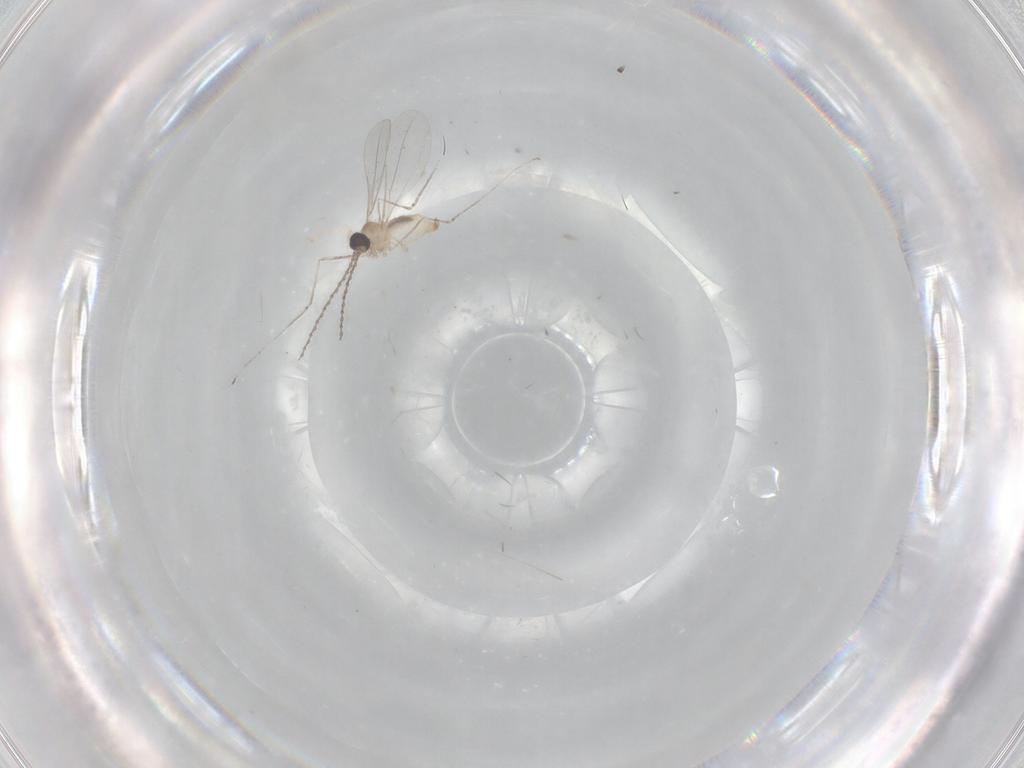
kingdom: Animalia
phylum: Arthropoda
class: Insecta
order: Diptera
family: Cecidomyiidae
